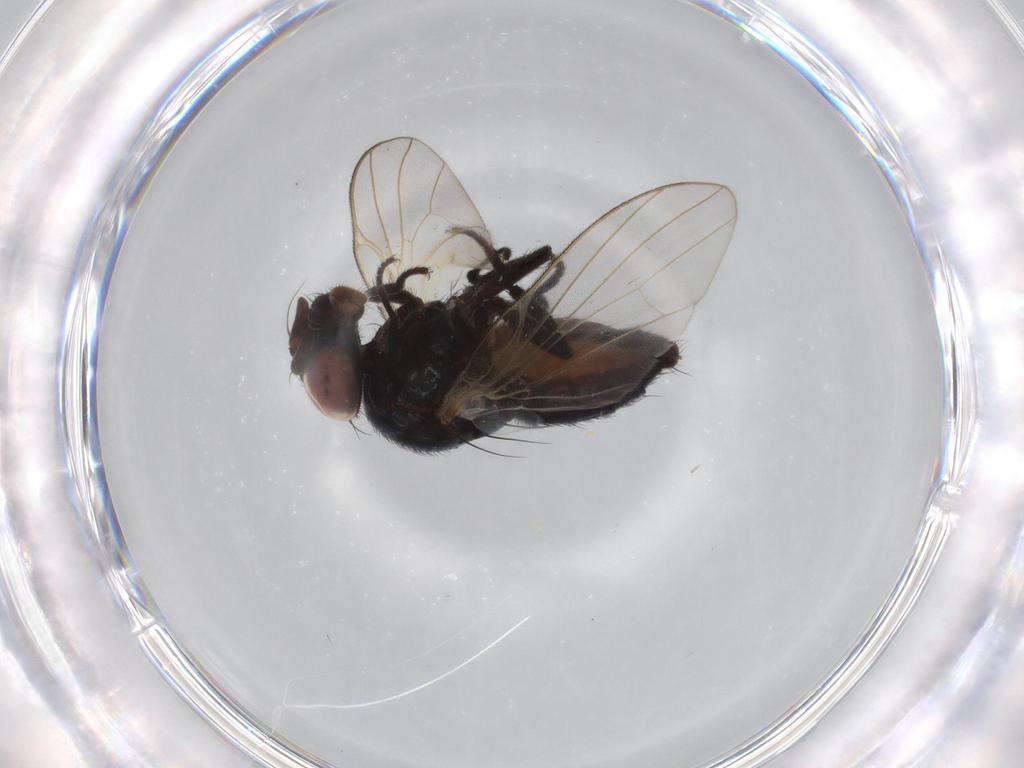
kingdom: Animalia
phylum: Arthropoda
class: Insecta
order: Diptera
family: Lonchaeidae
